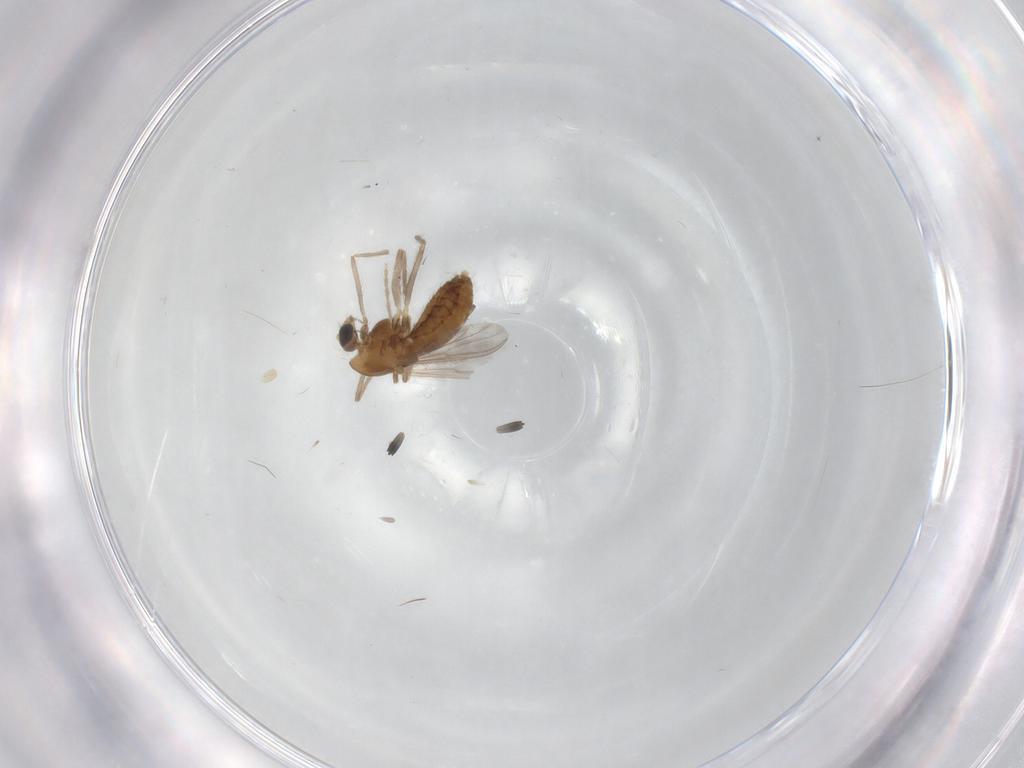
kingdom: Animalia
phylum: Arthropoda
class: Insecta
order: Diptera
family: Chironomidae
